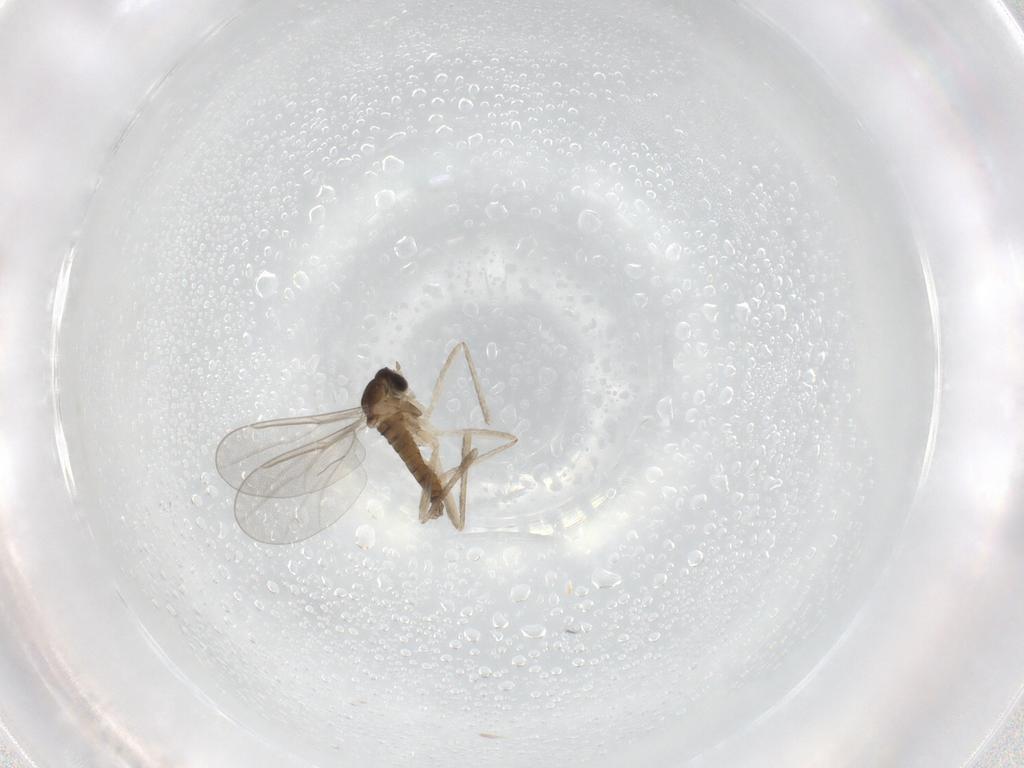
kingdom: Animalia
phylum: Arthropoda
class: Insecta
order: Diptera
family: Cecidomyiidae
